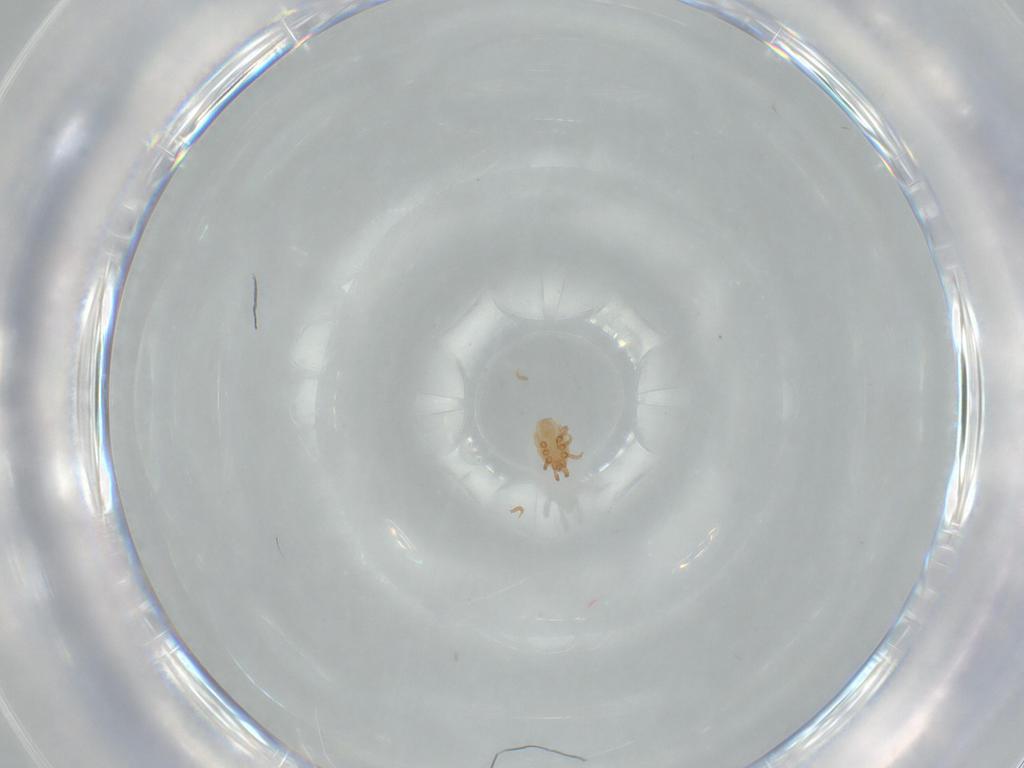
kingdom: Animalia
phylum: Arthropoda
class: Arachnida
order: Mesostigmata
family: Dinychidae
